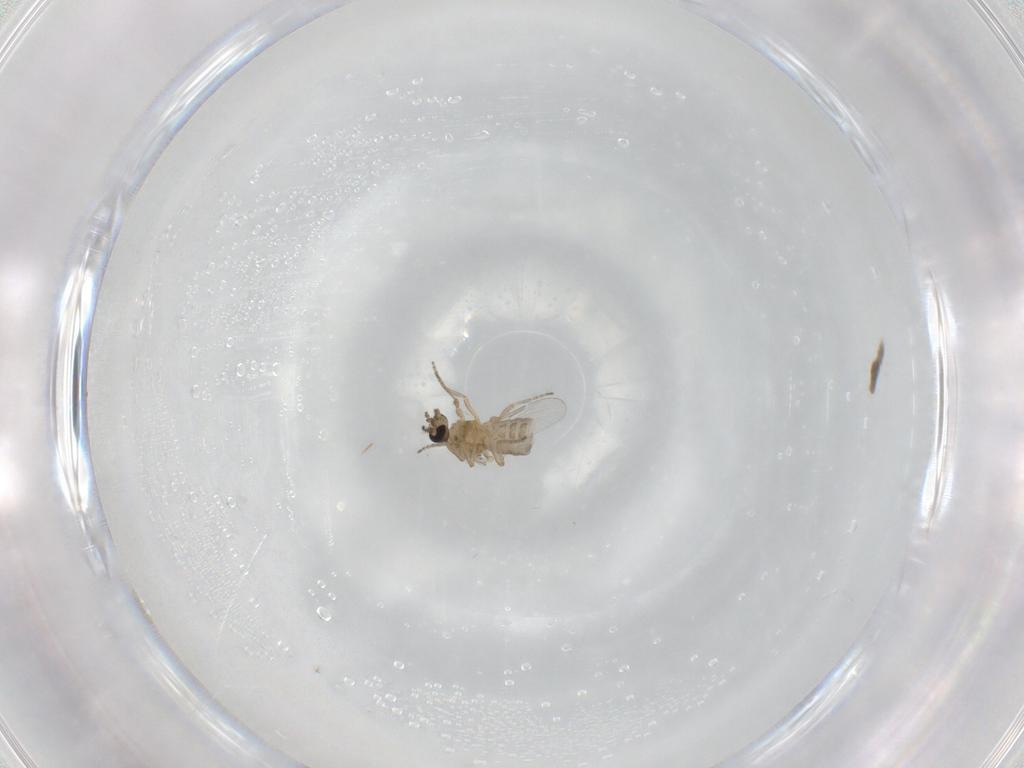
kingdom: Animalia
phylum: Arthropoda
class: Insecta
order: Diptera
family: Ceratopogonidae
